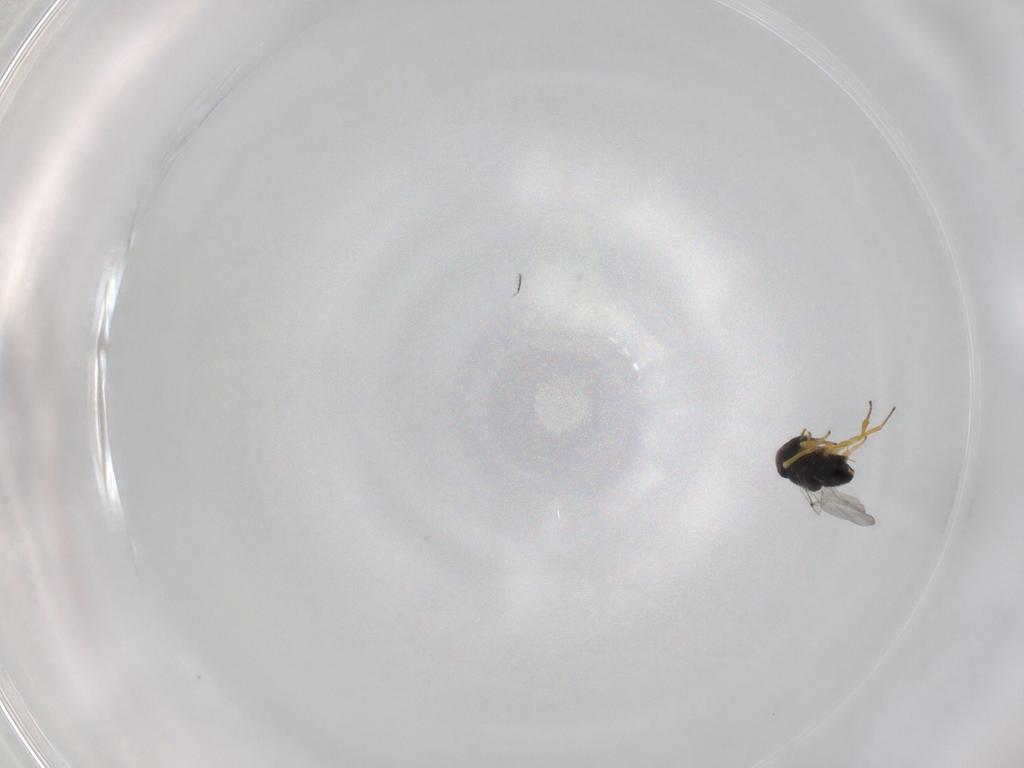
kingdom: Animalia
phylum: Arthropoda
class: Insecta
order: Hymenoptera
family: Encyrtidae
